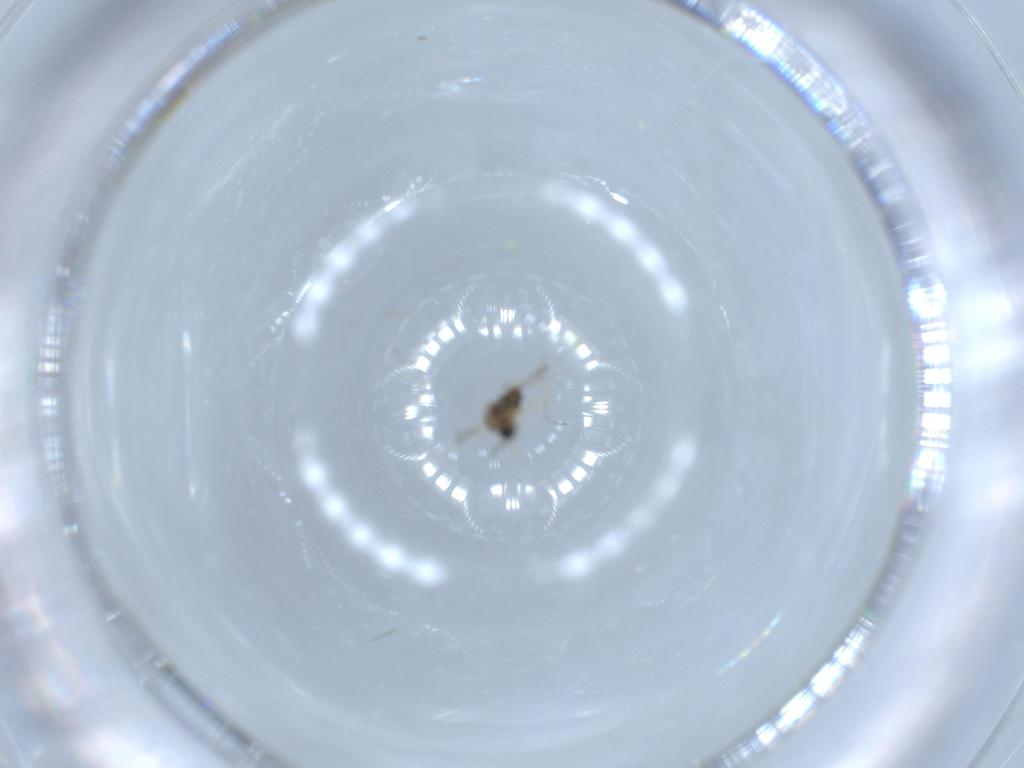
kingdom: Animalia
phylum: Arthropoda
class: Insecta
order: Diptera
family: Cecidomyiidae
